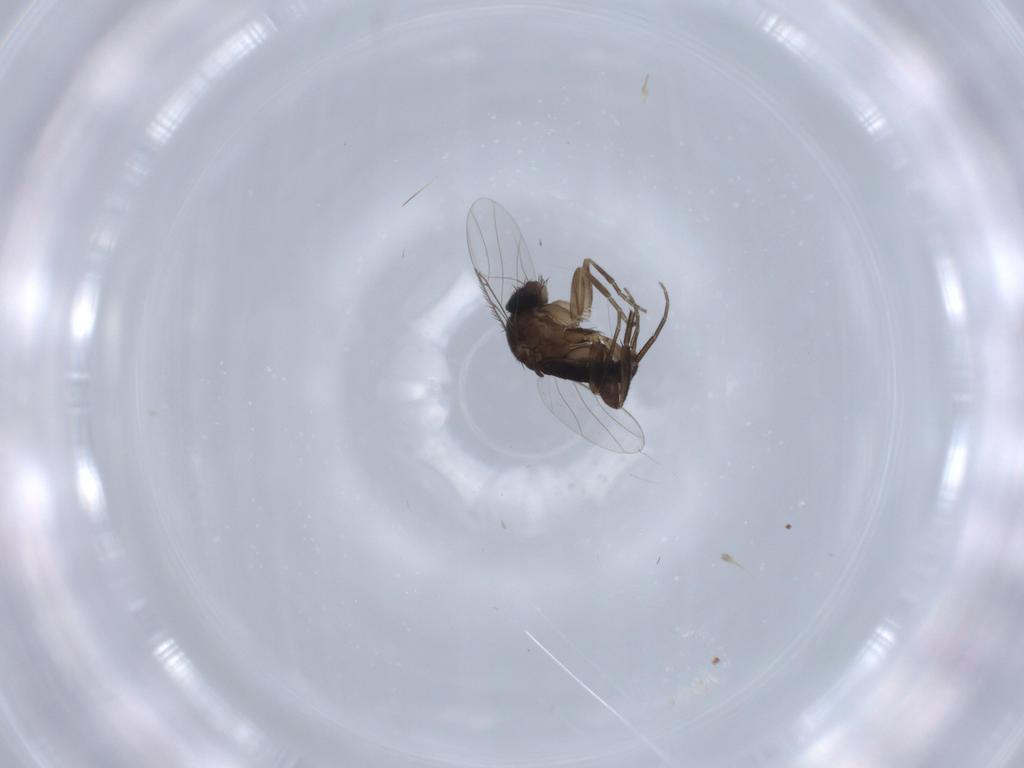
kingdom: Animalia
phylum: Arthropoda
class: Insecta
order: Diptera
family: Phoridae
